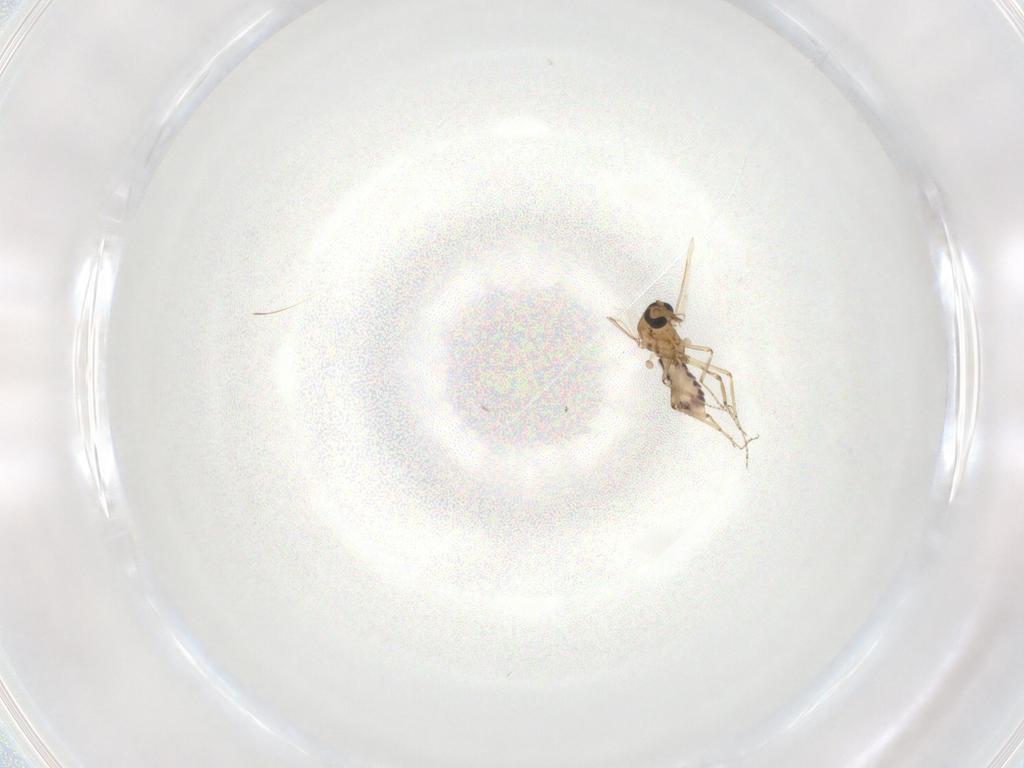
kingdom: Animalia
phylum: Arthropoda
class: Insecta
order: Diptera
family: Ceratopogonidae
